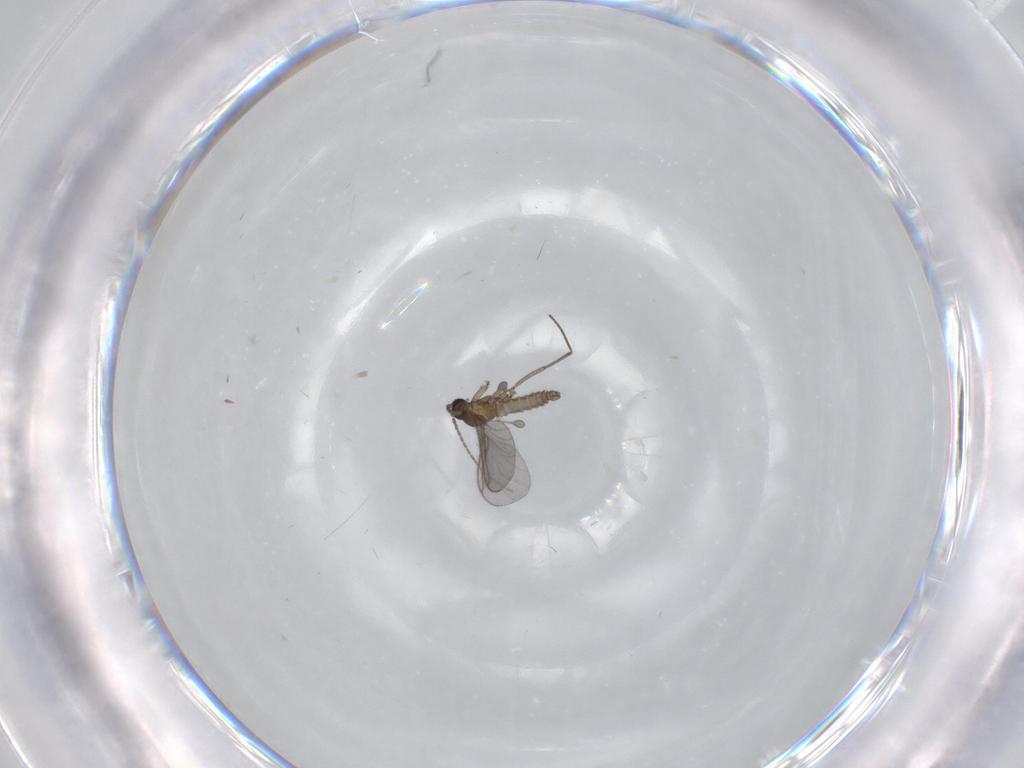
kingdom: Animalia
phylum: Arthropoda
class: Insecta
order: Diptera
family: Sciaridae
